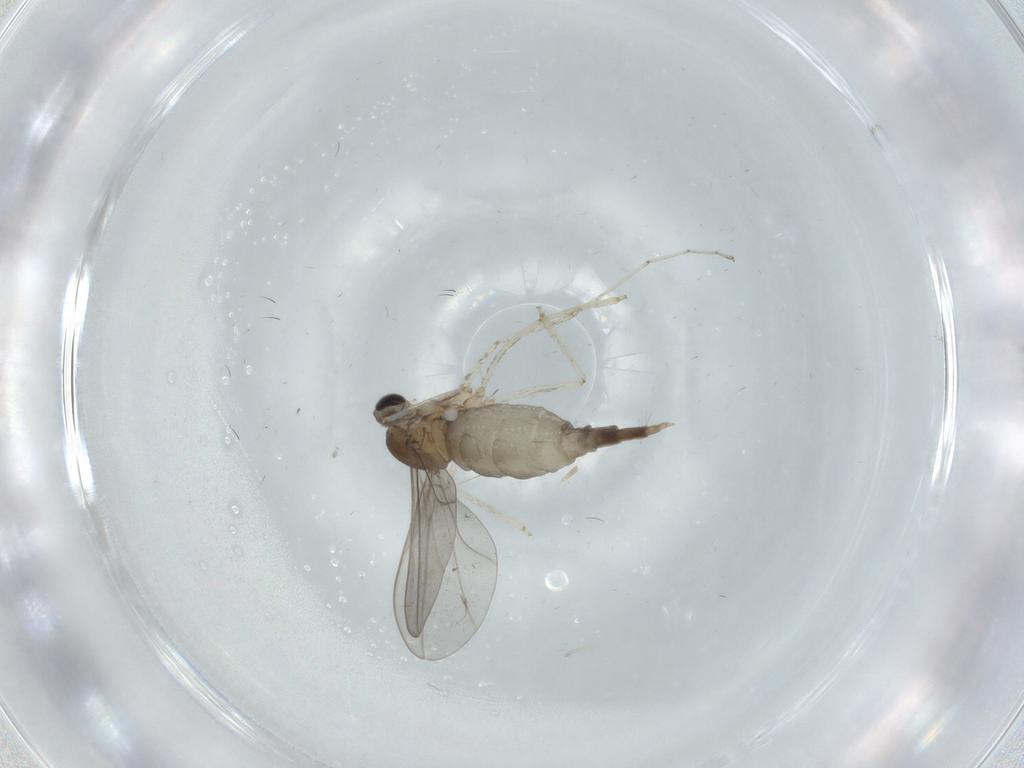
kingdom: Animalia
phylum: Arthropoda
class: Insecta
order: Diptera
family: Cecidomyiidae
